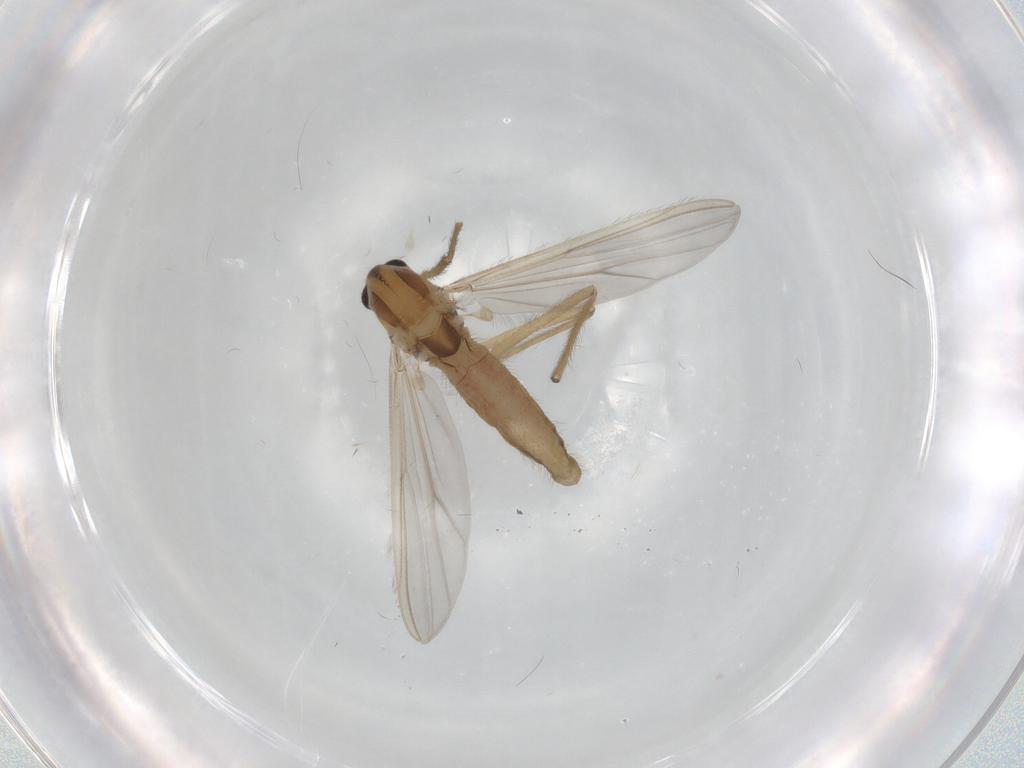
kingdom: Animalia
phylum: Arthropoda
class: Insecta
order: Diptera
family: Chironomidae
